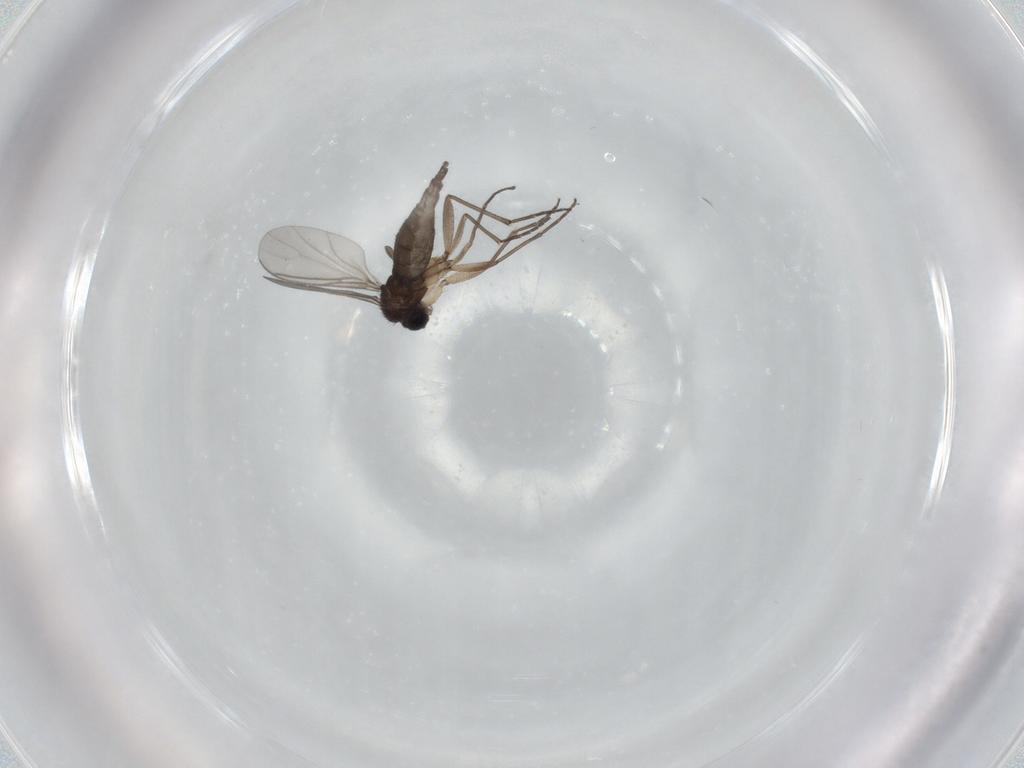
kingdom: Animalia
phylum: Arthropoda
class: Insecta
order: Diptera
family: Sciaridae
